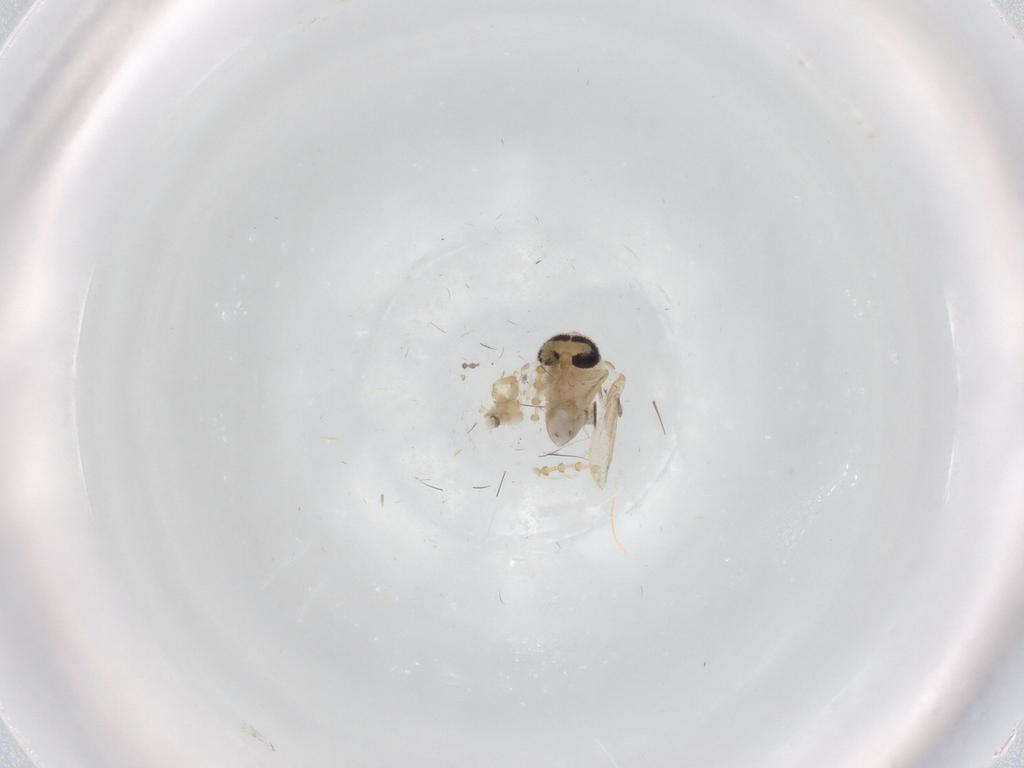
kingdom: Animalia
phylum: Arthropoda
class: Insecta
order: Diptera
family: Psychodidae
